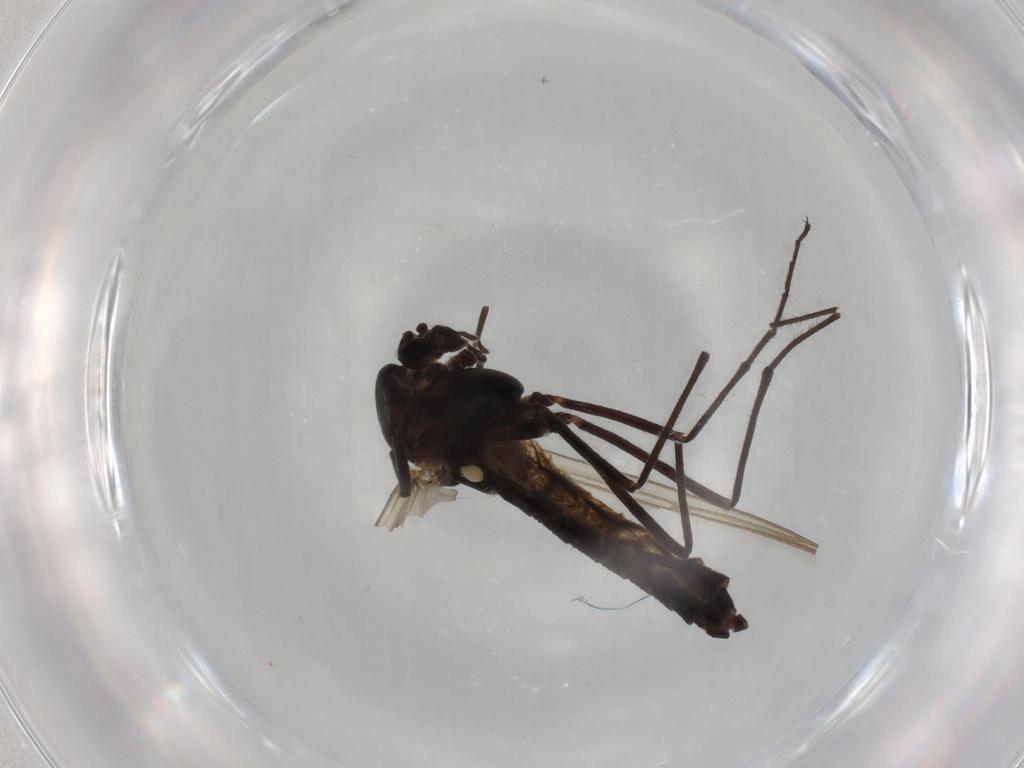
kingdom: Animalia
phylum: Arthropoda
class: Insecta
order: Diptera
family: Chironomidae
